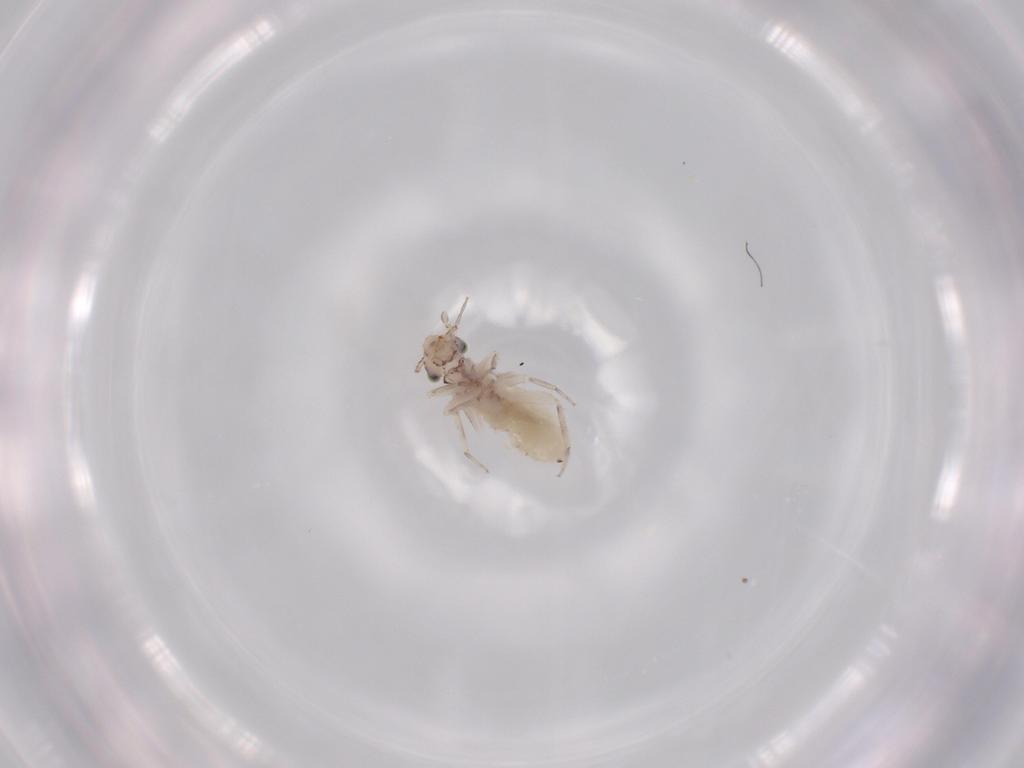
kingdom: Animalia
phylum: Arthropoda
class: Insecta
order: Psocodea
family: Lepidopsocidae
